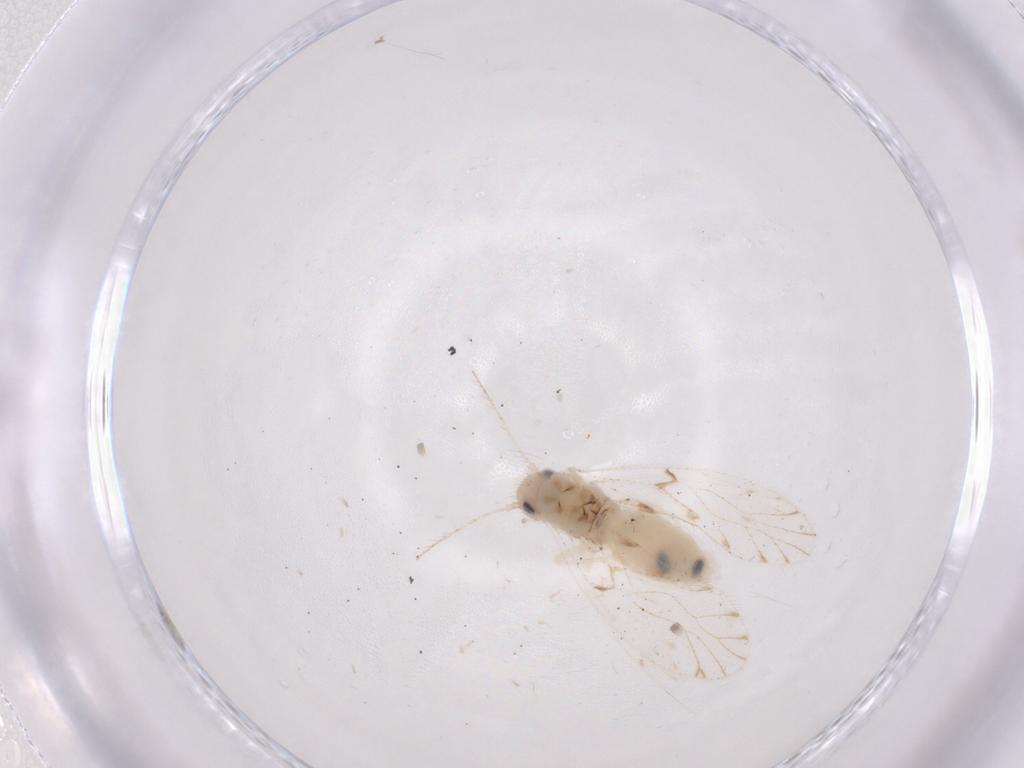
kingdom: Animalia
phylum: Arthropoda
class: Insecta
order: Psocodea
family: Trichopsocidae
